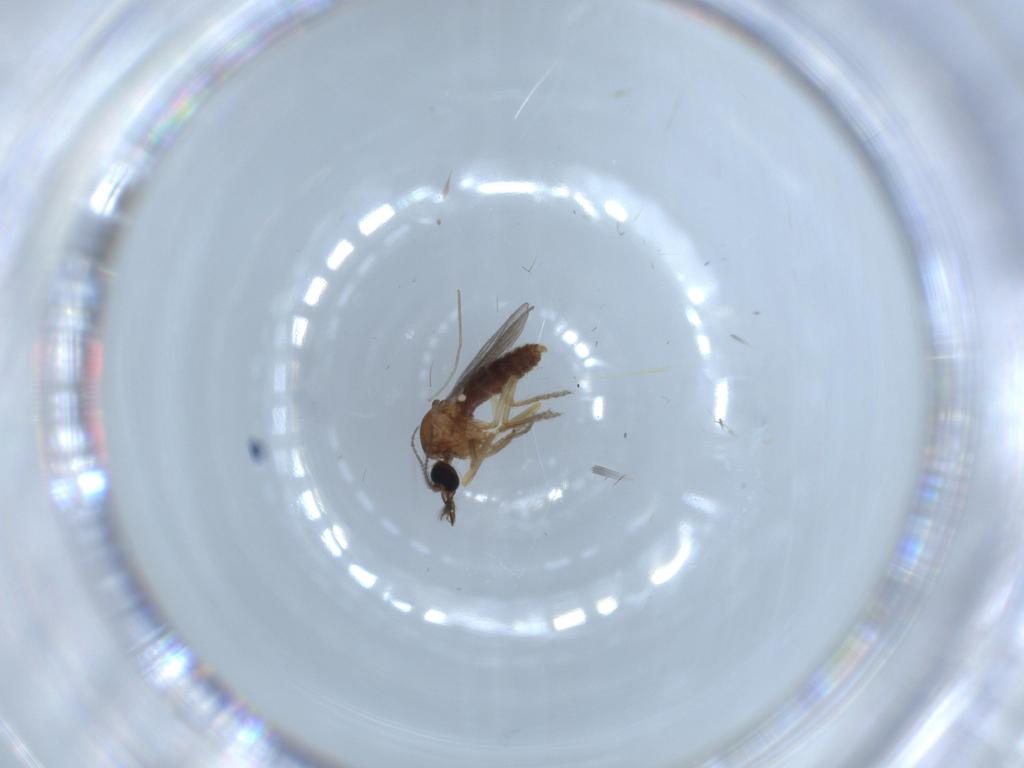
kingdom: Animalia
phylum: Arthropoda
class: Insecta
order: Diptera
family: Ceratopogonidae
